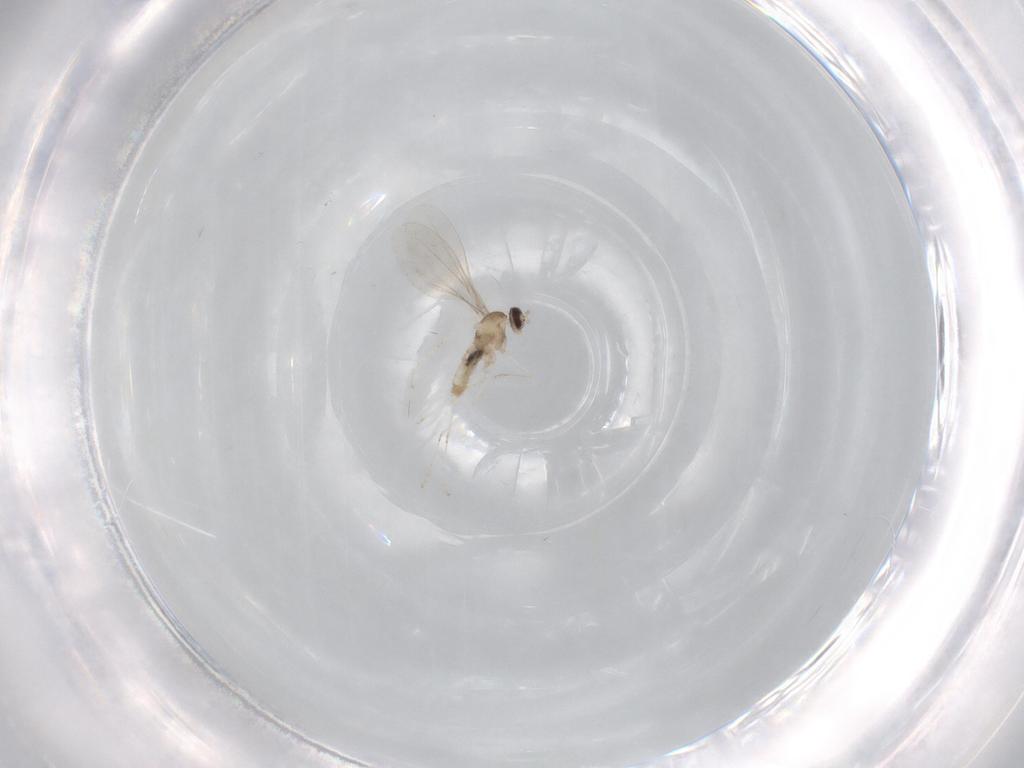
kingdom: Animalia
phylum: Arthropoda
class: Insecta
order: Diptera
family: Cecidomyiidae
